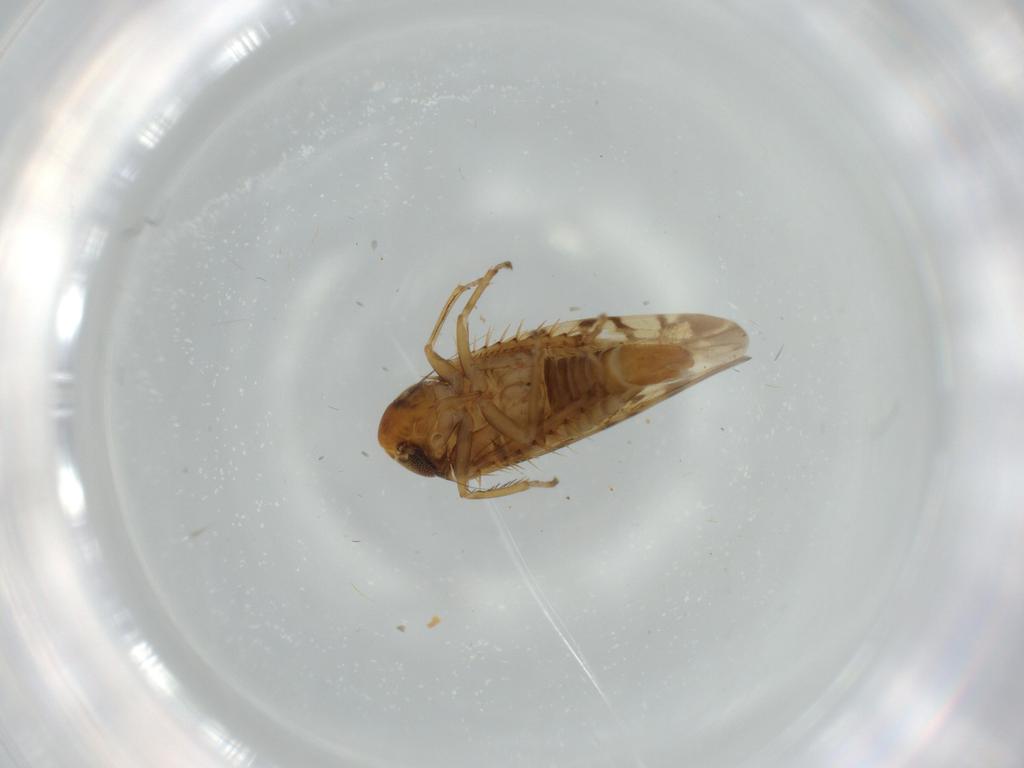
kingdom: Animalia
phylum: Arthropoda
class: Insecta
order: Hemiptera
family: Cicadellidae
